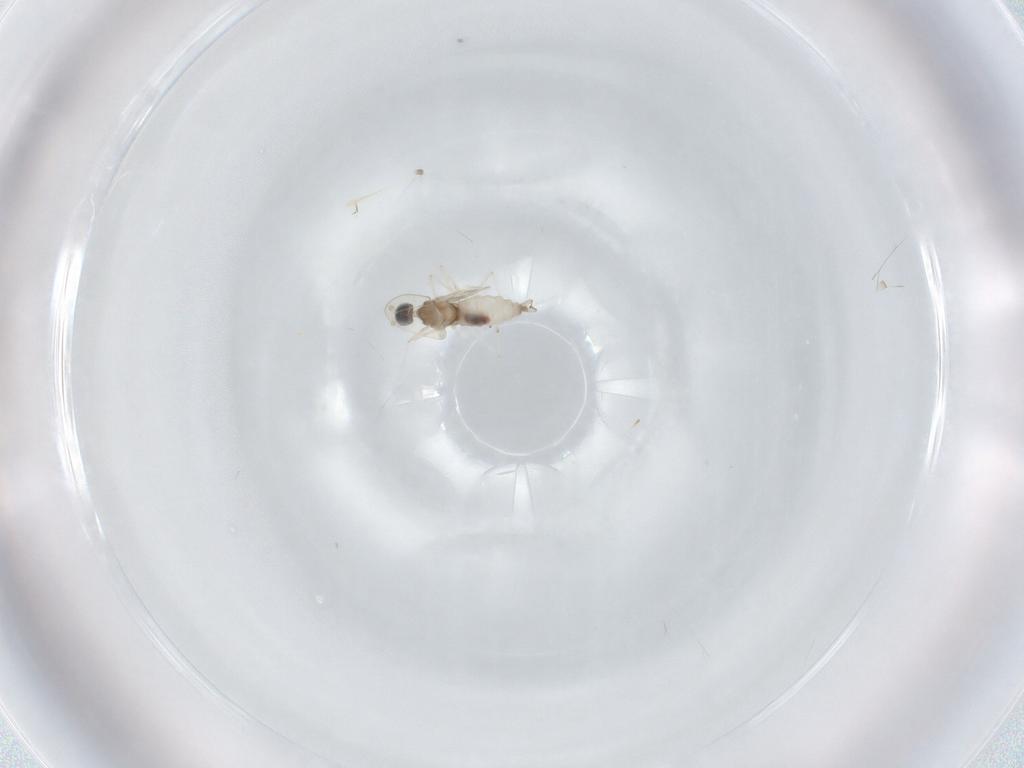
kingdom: Animalia
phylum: Arthropoda
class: Insecta
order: Diptera
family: Cecidomyiidae
